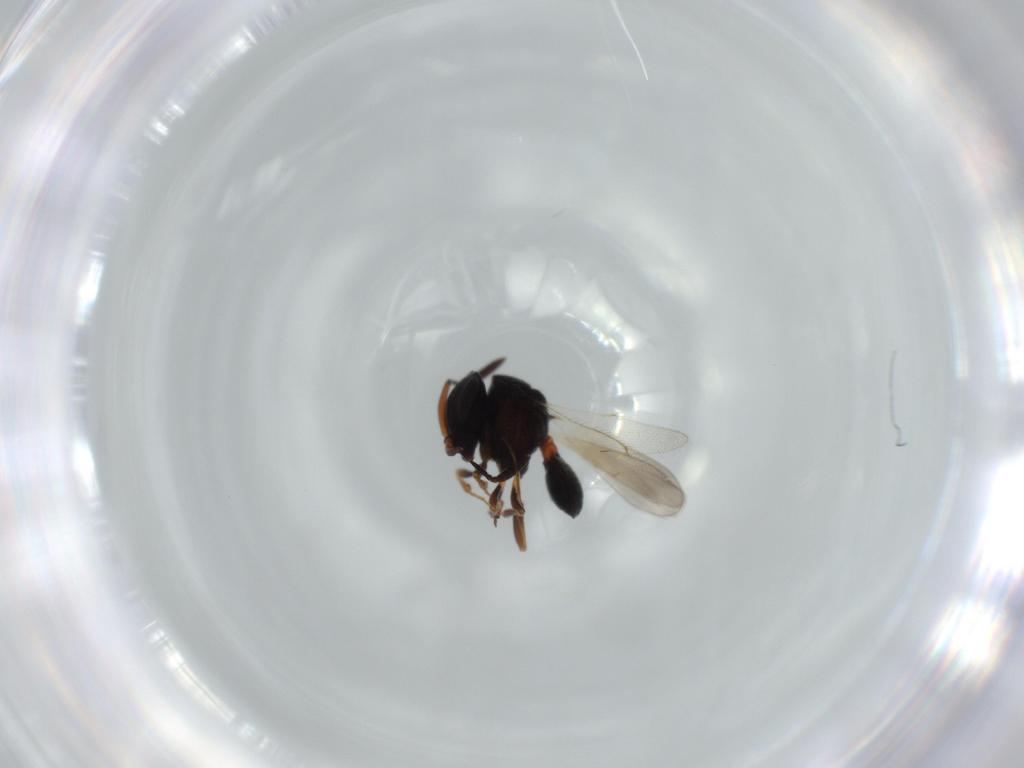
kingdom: Animalia
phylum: Arthropoda
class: Insecta
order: Hymenoptera
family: Scelionidae
